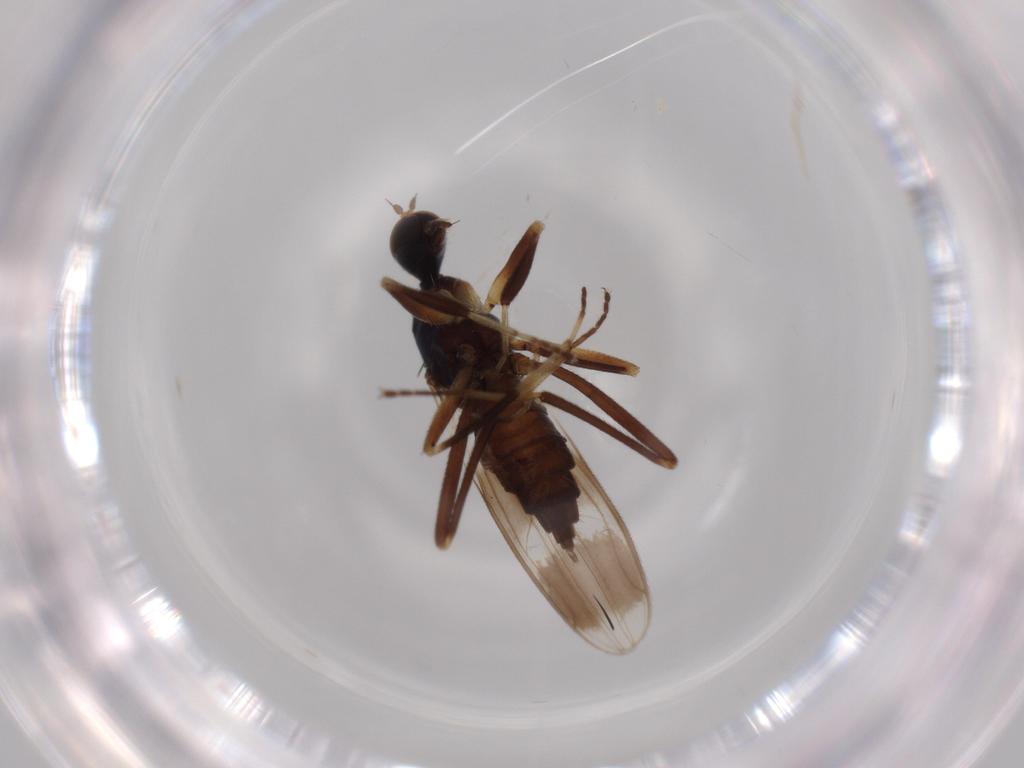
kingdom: Animalia
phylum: Arthropoda
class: Insecta
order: Diptera
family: Hybotidae
